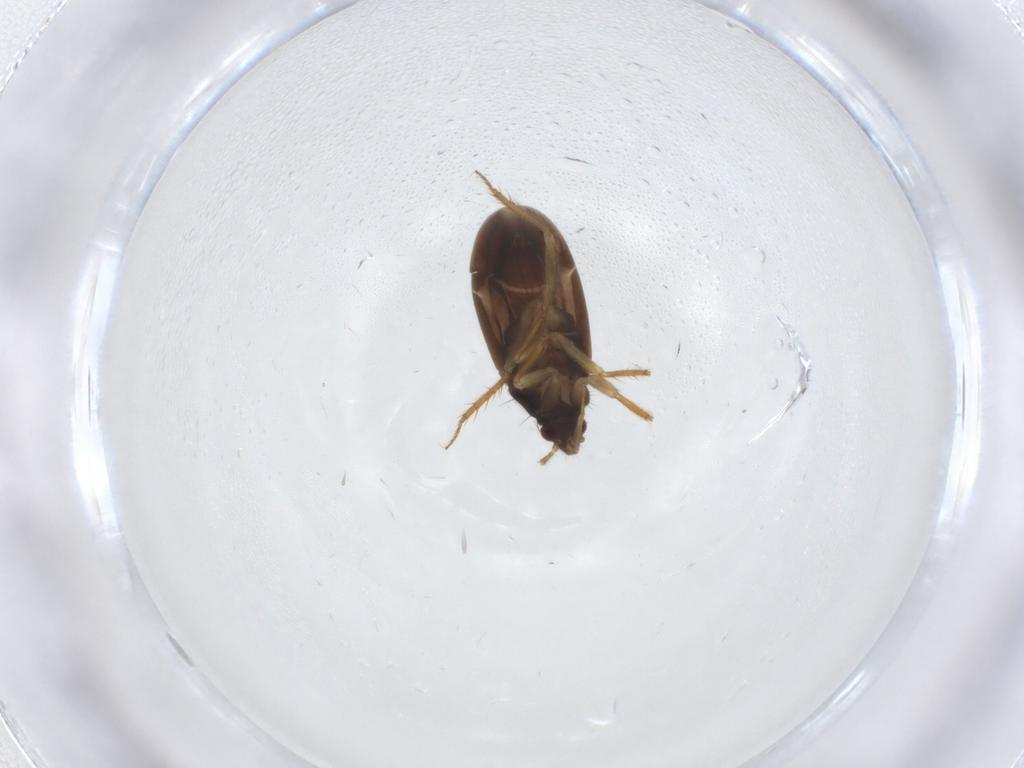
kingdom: Animalia
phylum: Arthropoda
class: Insecta
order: Hemiptera
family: Ceratocombidae
